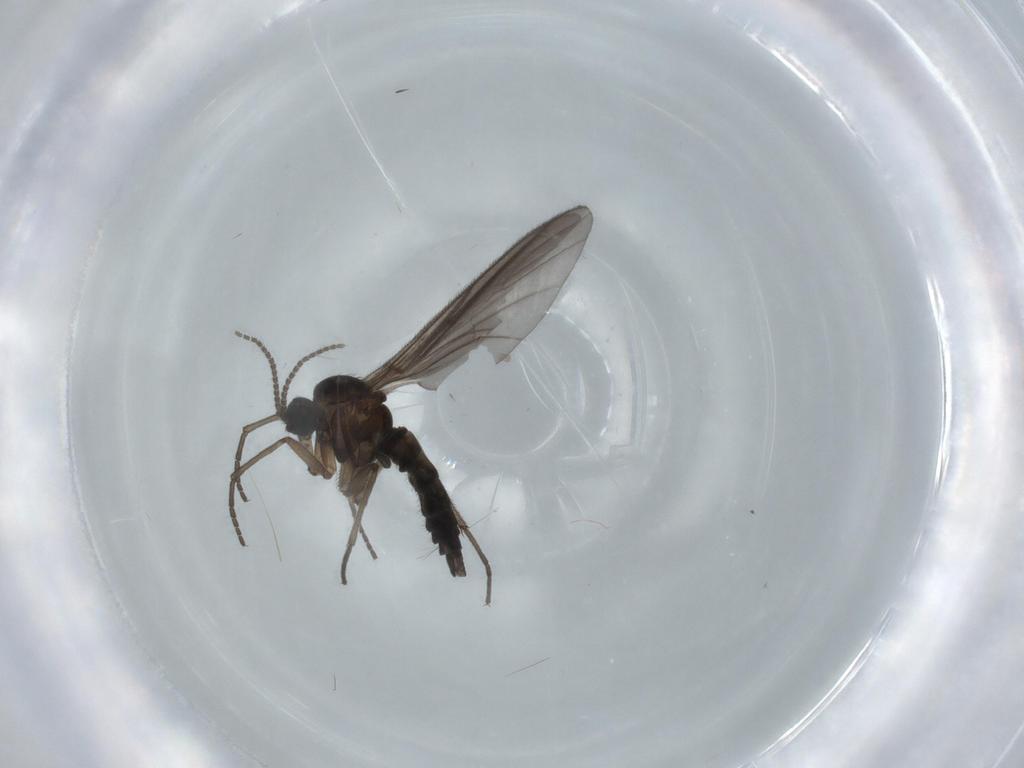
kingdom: Animalia
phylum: Arthropoda
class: Insecta
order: Diptera
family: Sciaridae
